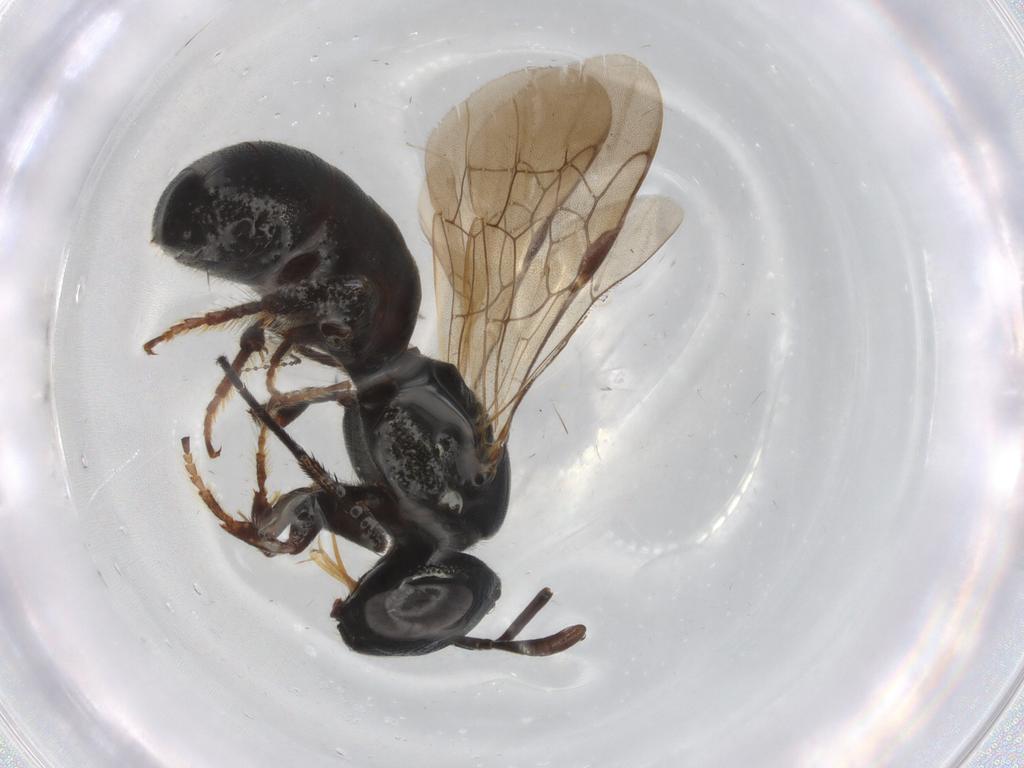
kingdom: Animalia
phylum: Arthropoda
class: Insecta
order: Hymenoptera
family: Eulophidae
